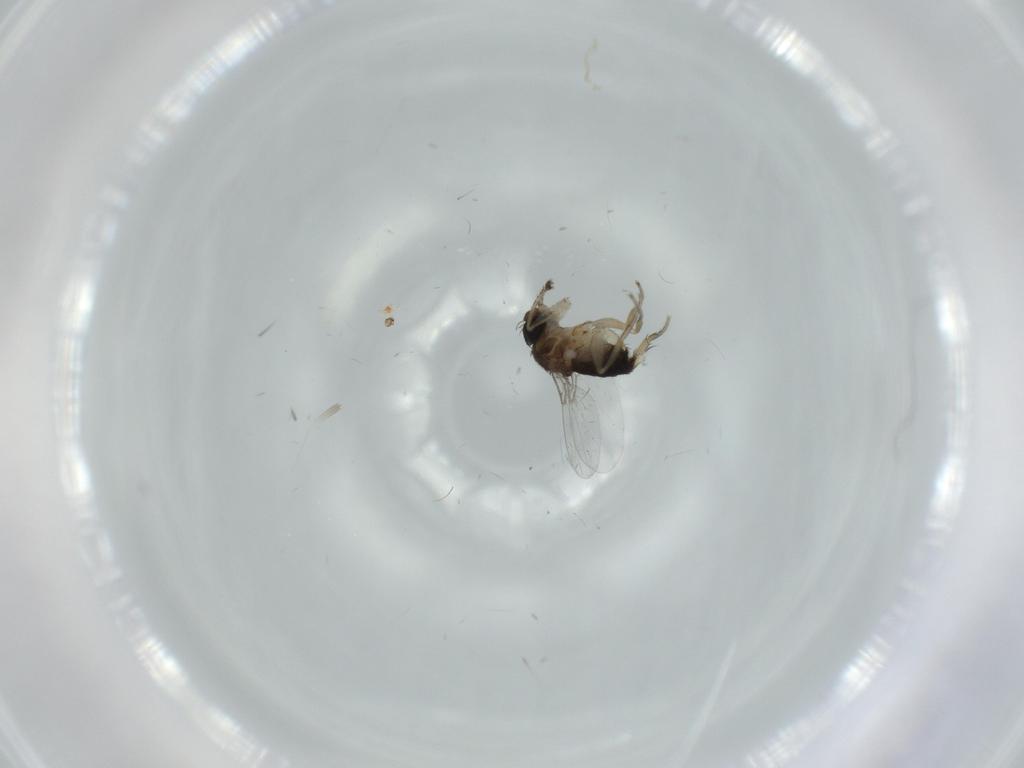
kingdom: Animalia
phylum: Arthropoda
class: Insecta
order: Diptera
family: Phoridae
